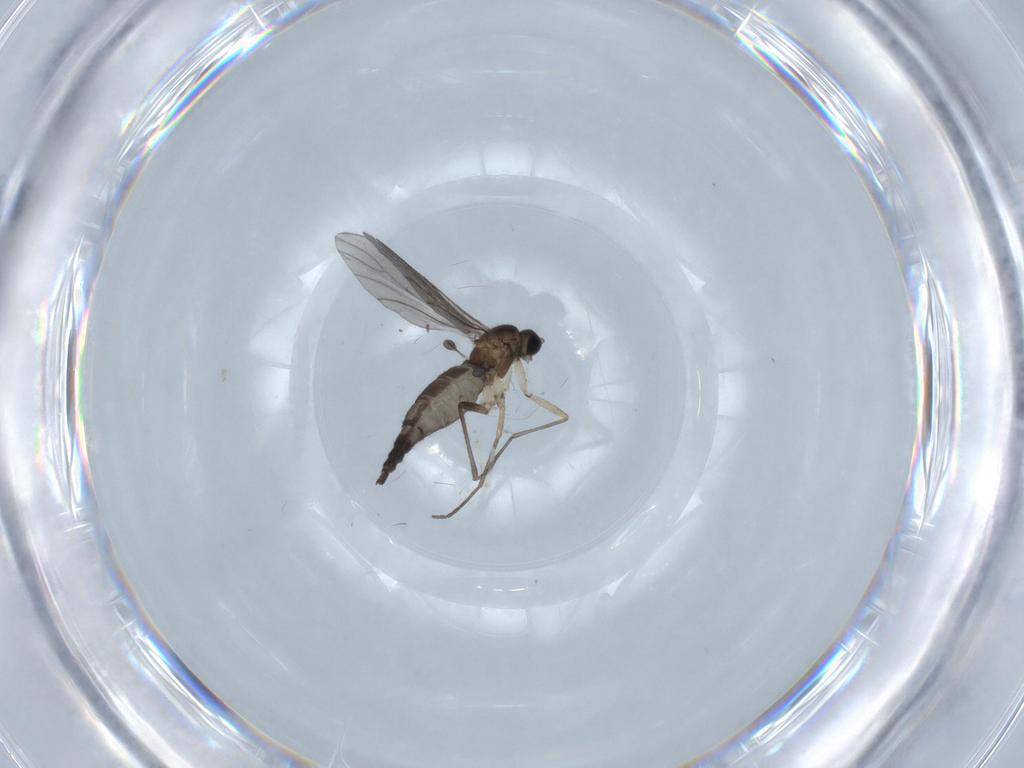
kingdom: Animalia
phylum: Arthropoda
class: Insecta
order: Diptera
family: Sciaridae
